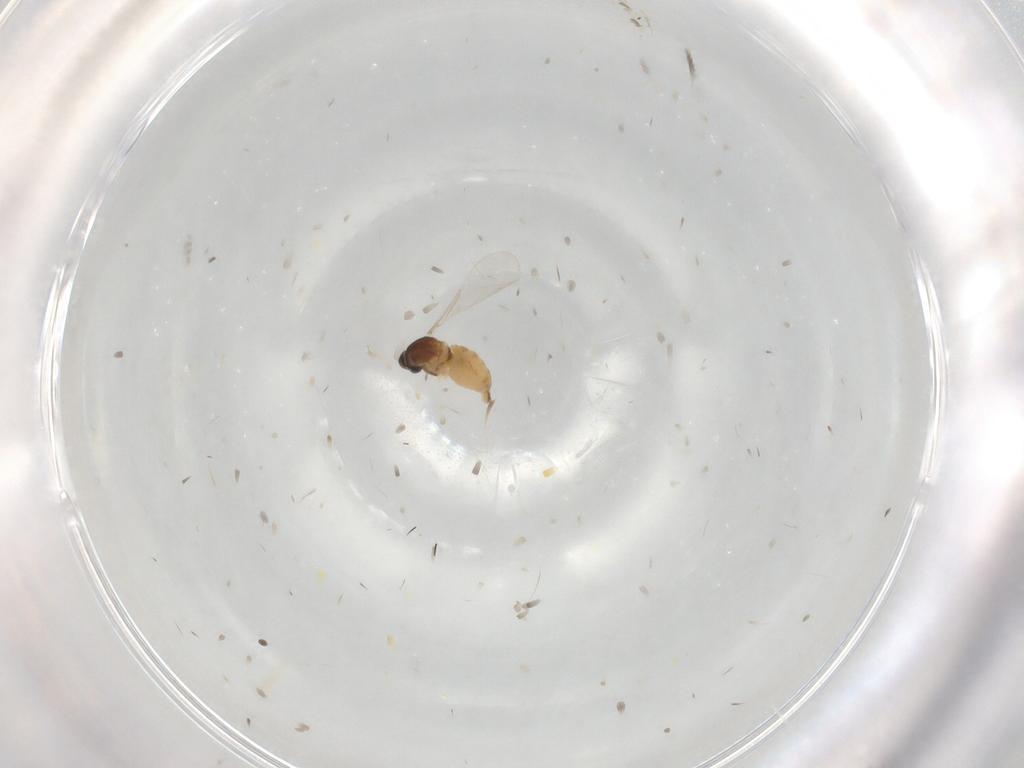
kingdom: Animalia
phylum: Arthropoda
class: Insecta
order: Diptera
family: Cecidomyiidae
